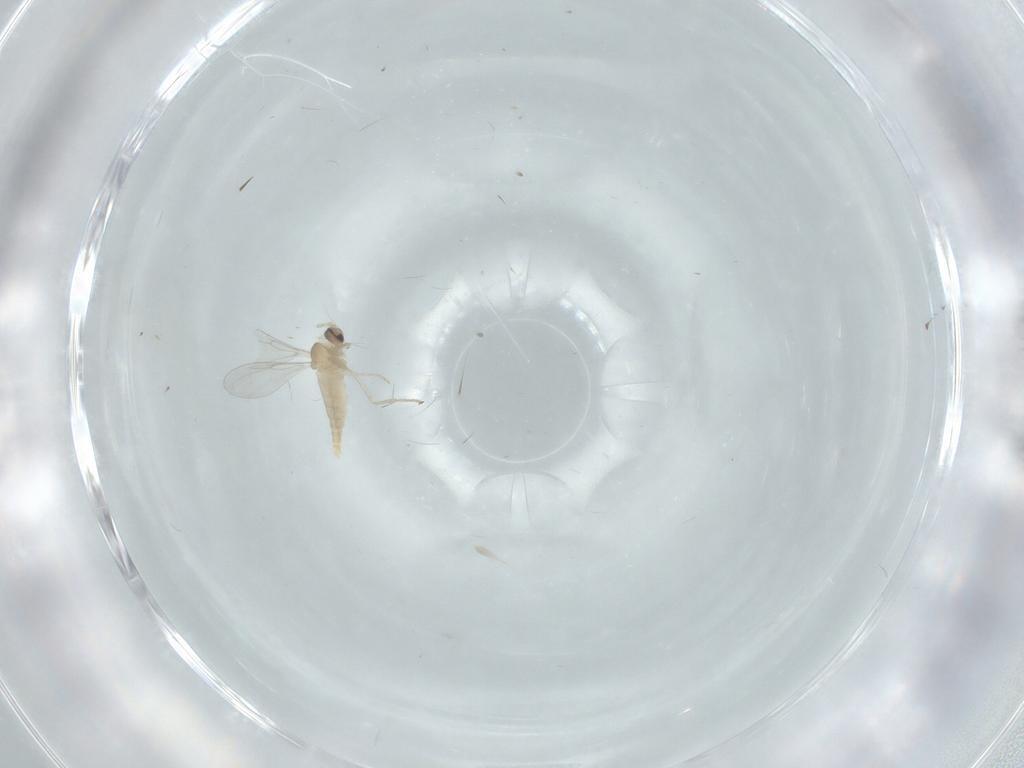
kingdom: Animalia
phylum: Arthropoda
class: Insecta
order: Diptera
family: Cecidomyiidae
